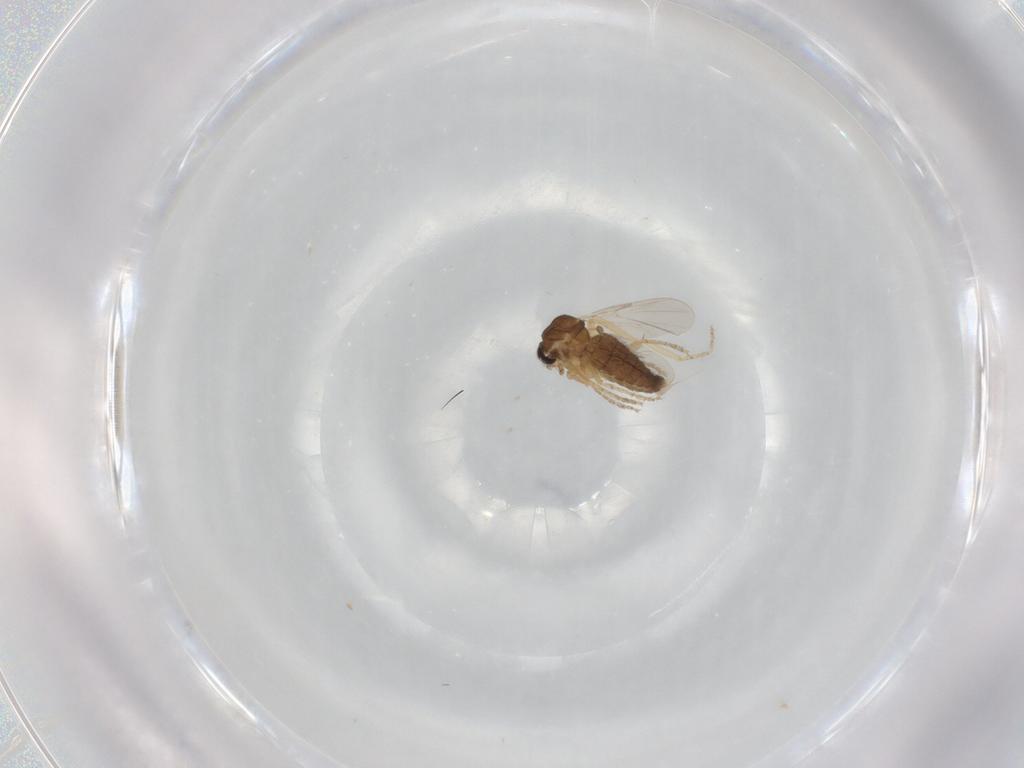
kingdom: Animalia
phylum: Arthropoda
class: Insecta
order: Diptera
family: Ceratopogonidae
